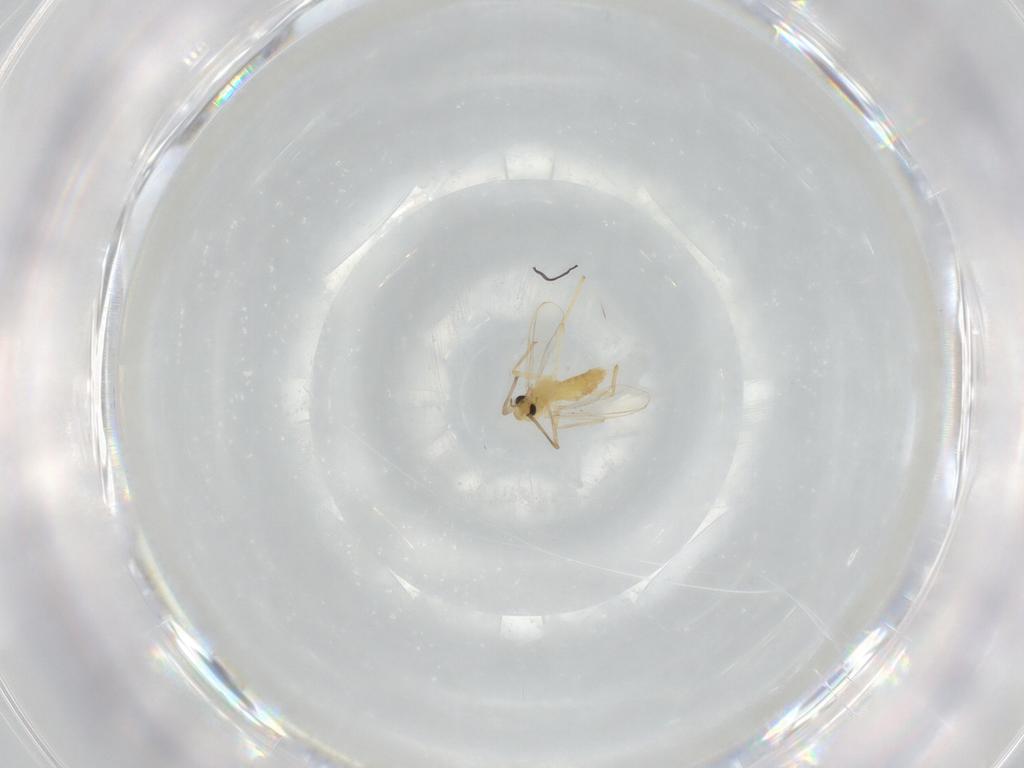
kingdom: Animalia
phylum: Arthropoda
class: Insecta
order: Diptera
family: Chironomidae
